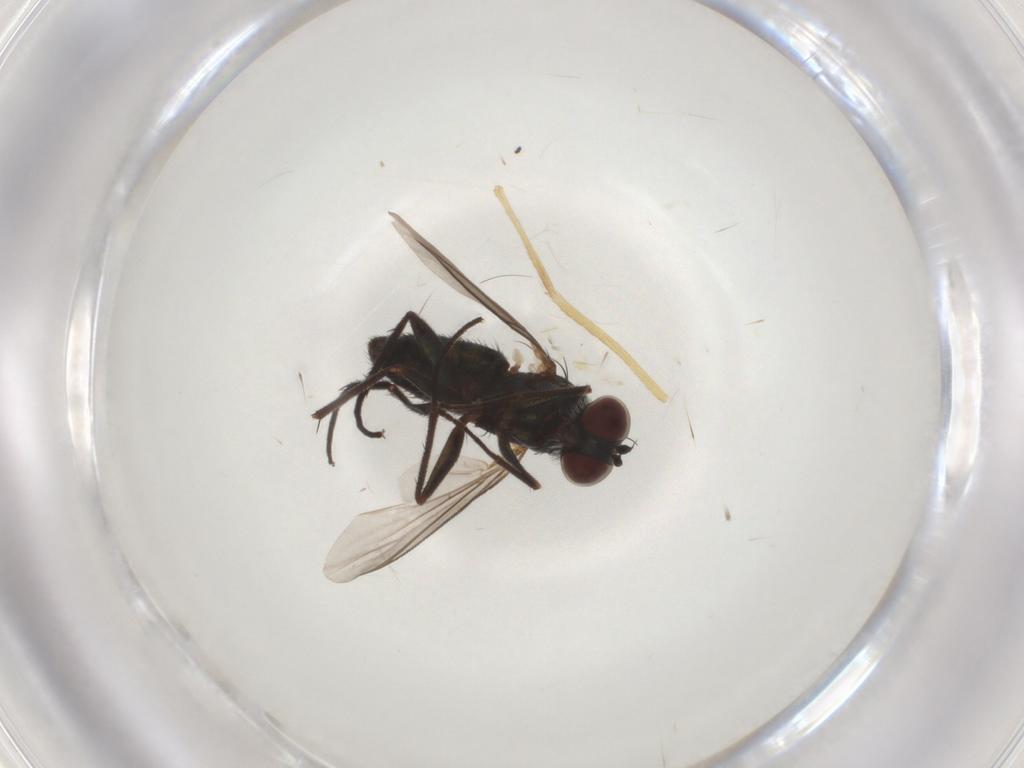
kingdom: Animalia
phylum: Arthropoda
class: Insecta
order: Diptera
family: Dolichopodidae
